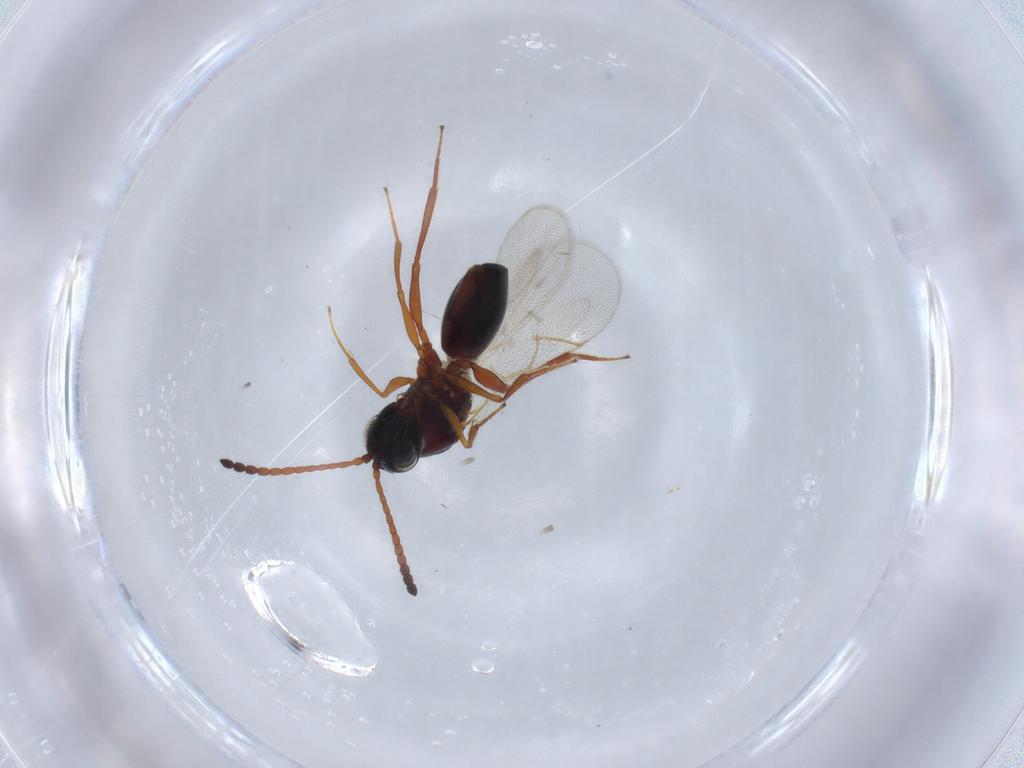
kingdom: Animalia
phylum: Arthropoda
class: Insecta
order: Hymenoptera
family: Figitidae
